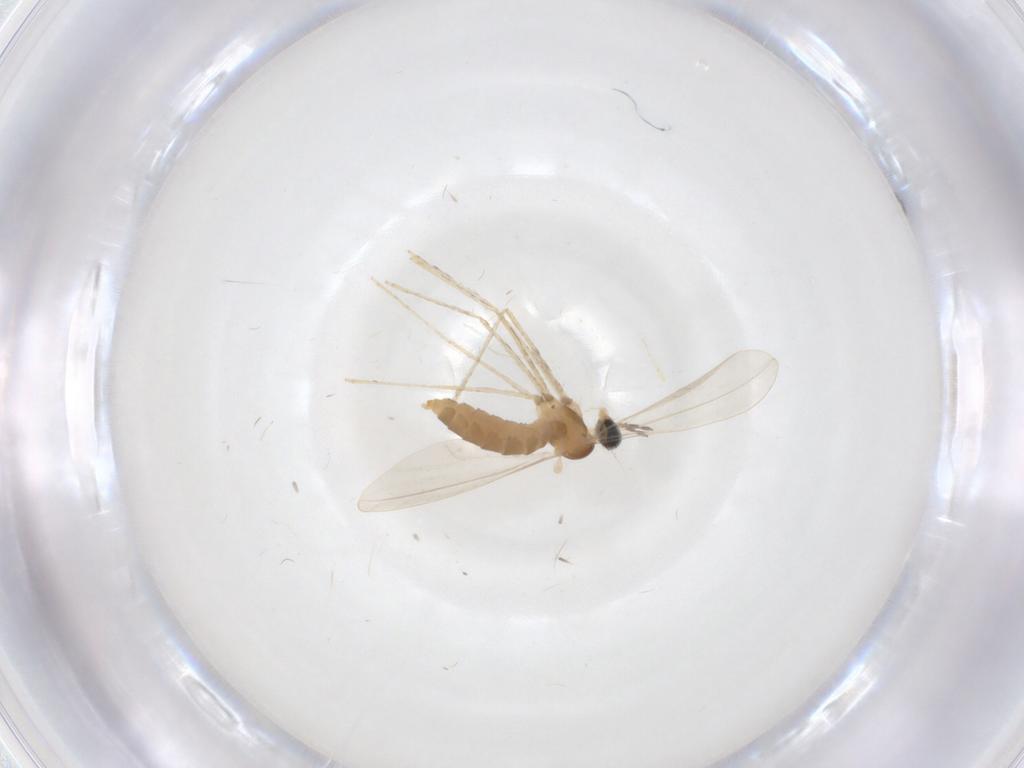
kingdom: Animalia
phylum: Arthropoda
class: Insecta
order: Diptera
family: Cecidomyiidae
